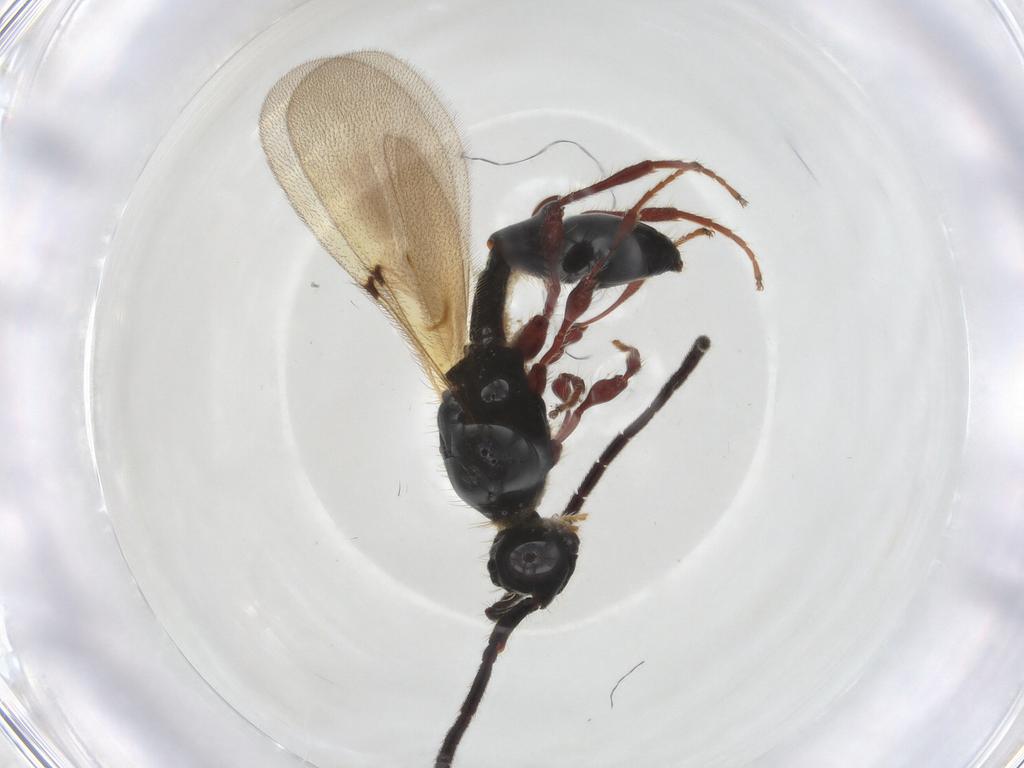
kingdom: Animalia
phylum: Arthropoda
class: Insecta
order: Hymenoptera
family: Diapriidae
